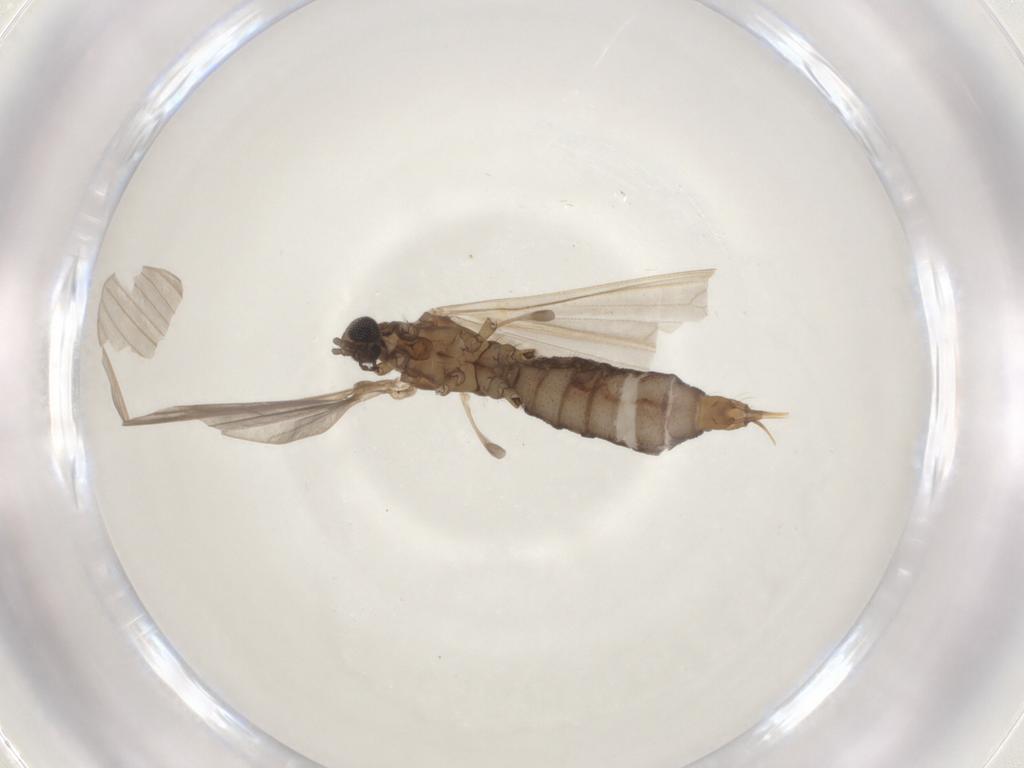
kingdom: Animalia
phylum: Arthropoda
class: Insecta
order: Diptera
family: Limoniidae
